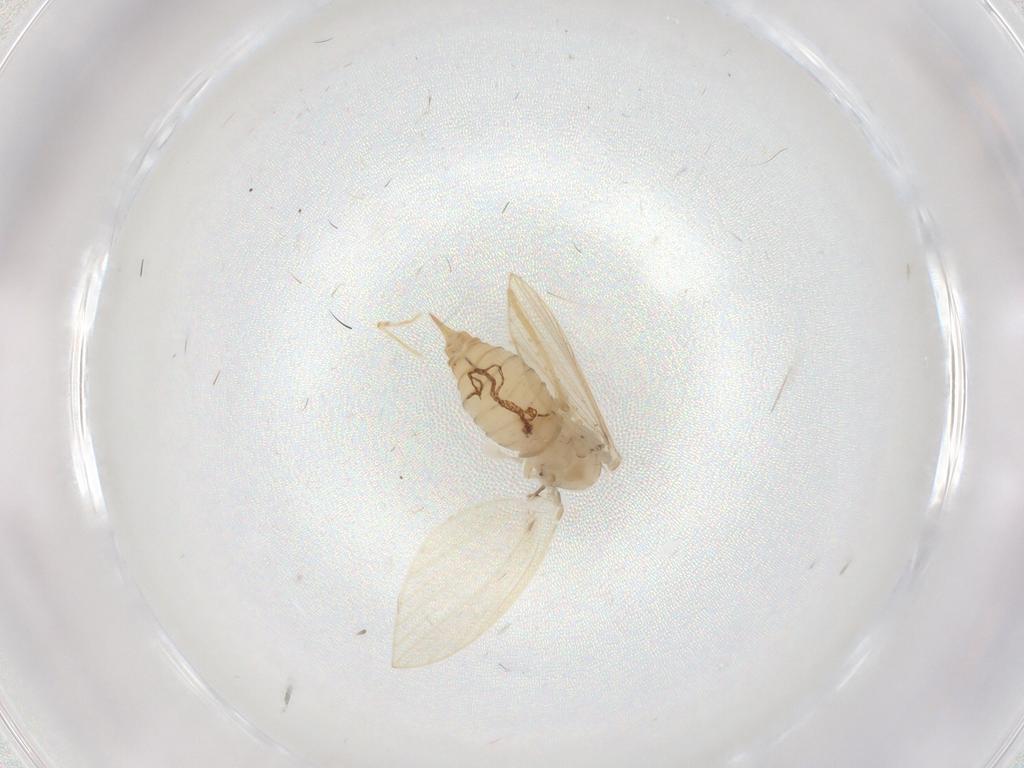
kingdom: Animalia
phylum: Arthropoda
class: Insecta
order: Diptera
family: Psychodidae
